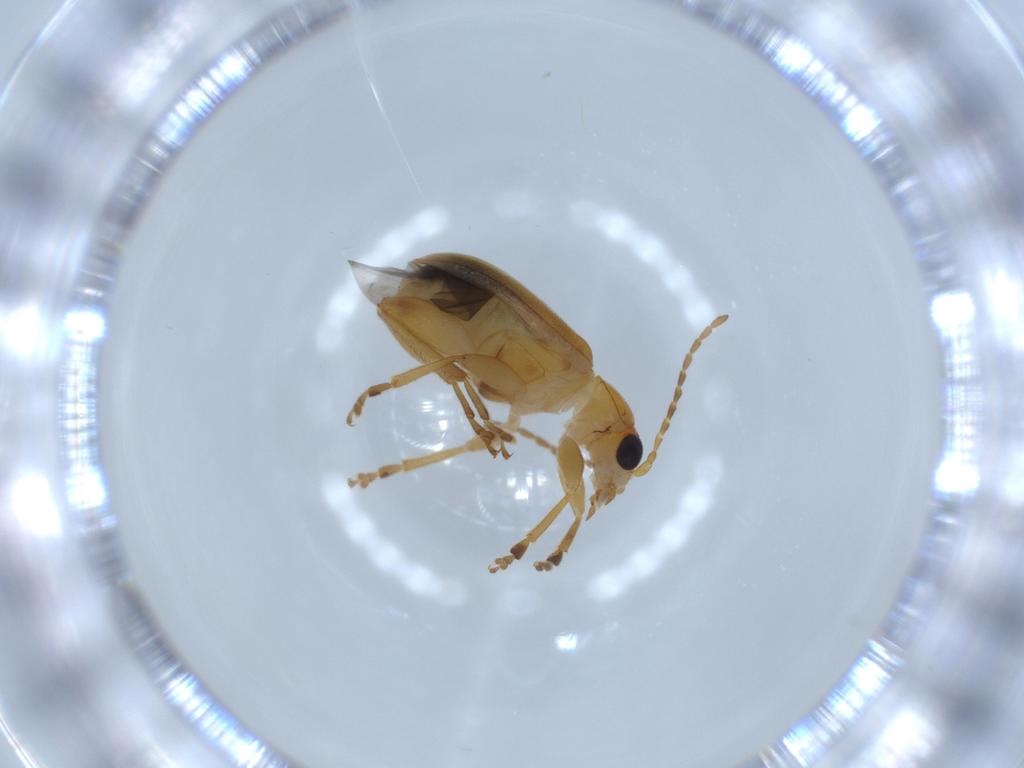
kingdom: Animalia
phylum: Arthropoda
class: Insecta
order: Coleoptera
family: Chrysomelidae
